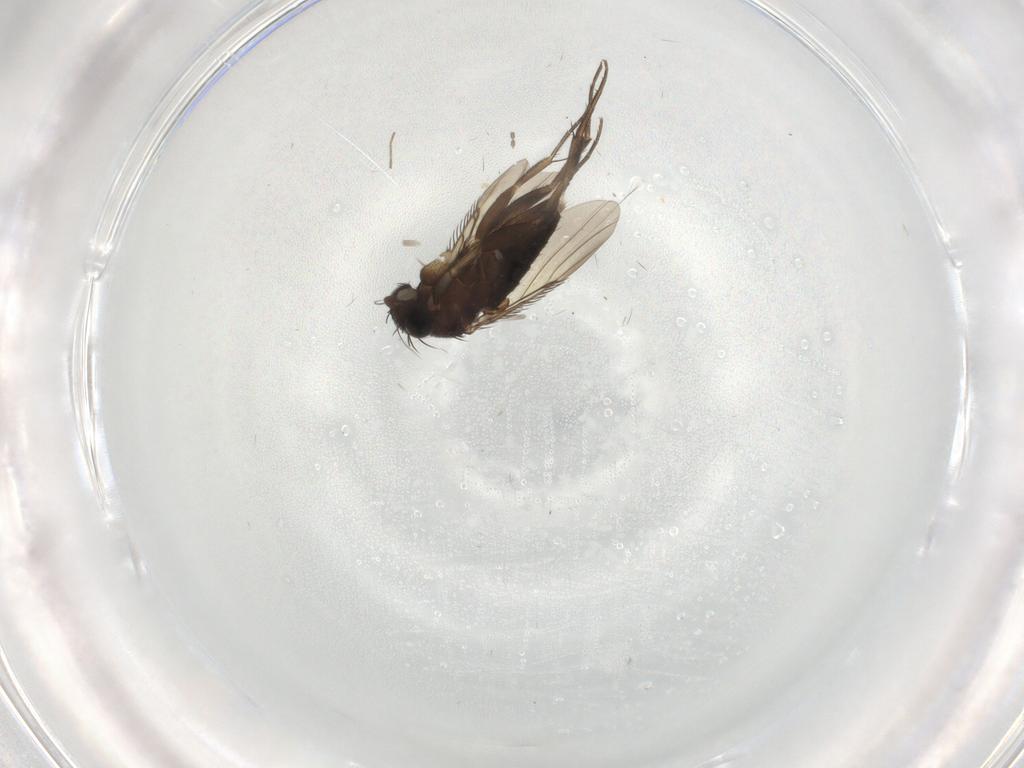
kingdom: Animalia
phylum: Arthropoda
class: Insecta
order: Diptera
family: Phoridae
